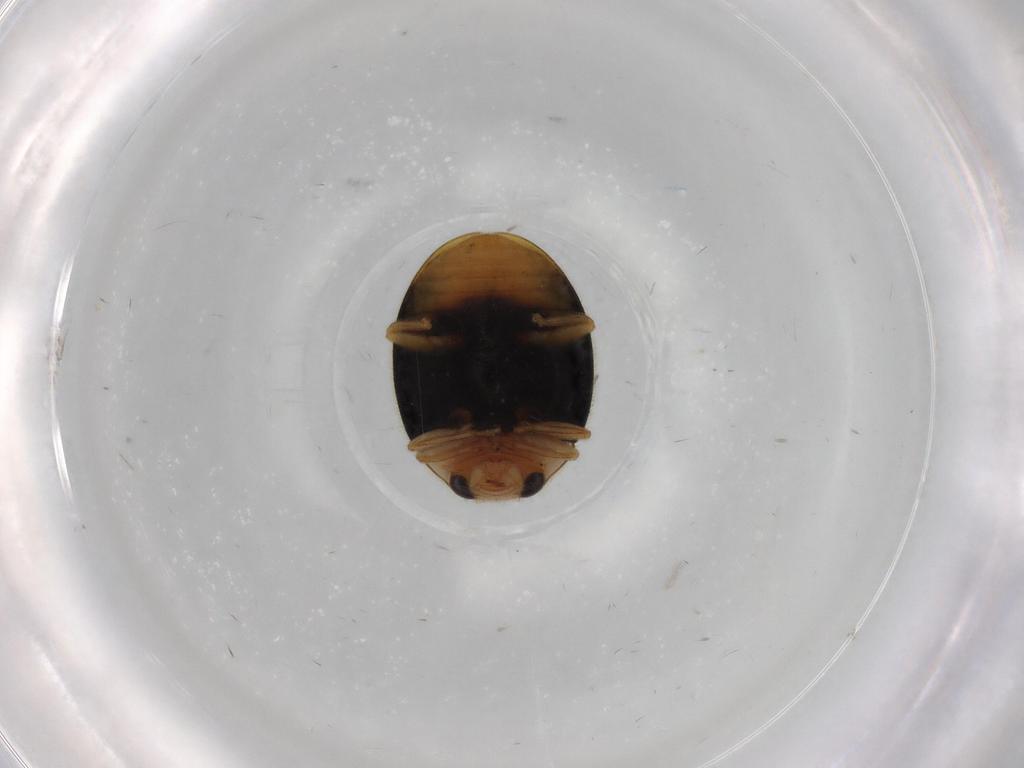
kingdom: Animalia
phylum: Arthropoda
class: Insecta
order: Coleoptera
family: Coccinellidae
